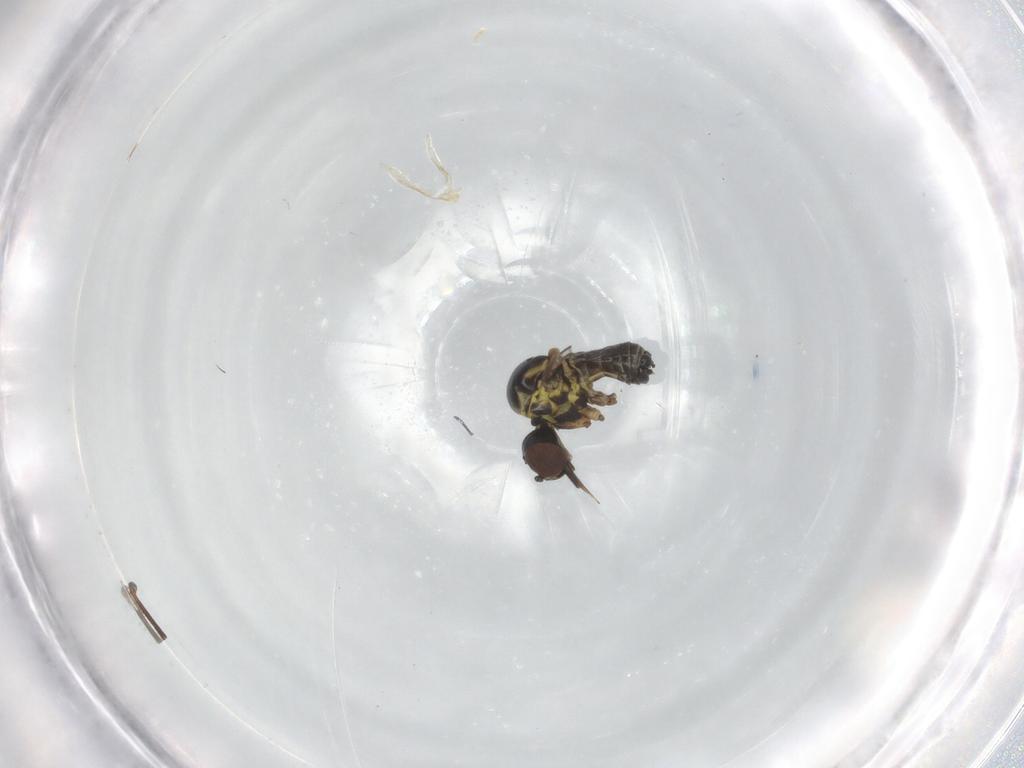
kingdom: Animalia
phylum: Arthropoda
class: Insecta
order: Diptera
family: Bombyliidae
